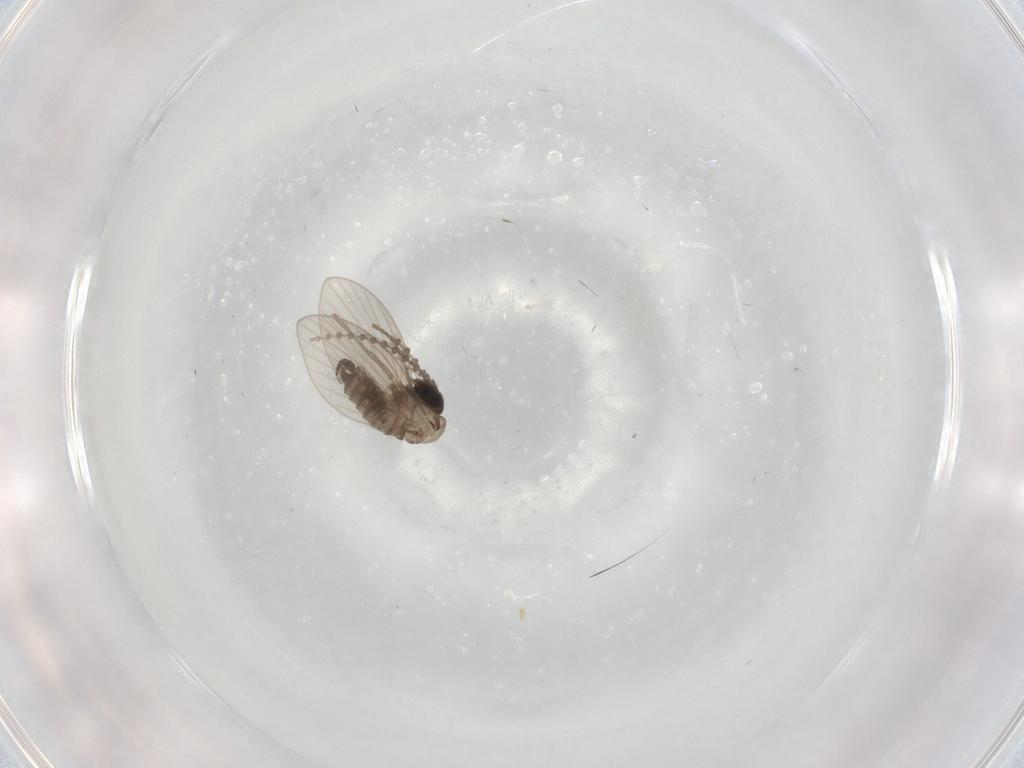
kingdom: Animalia
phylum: Arthropoda
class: Insecta
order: Diptera
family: Psychodidae
